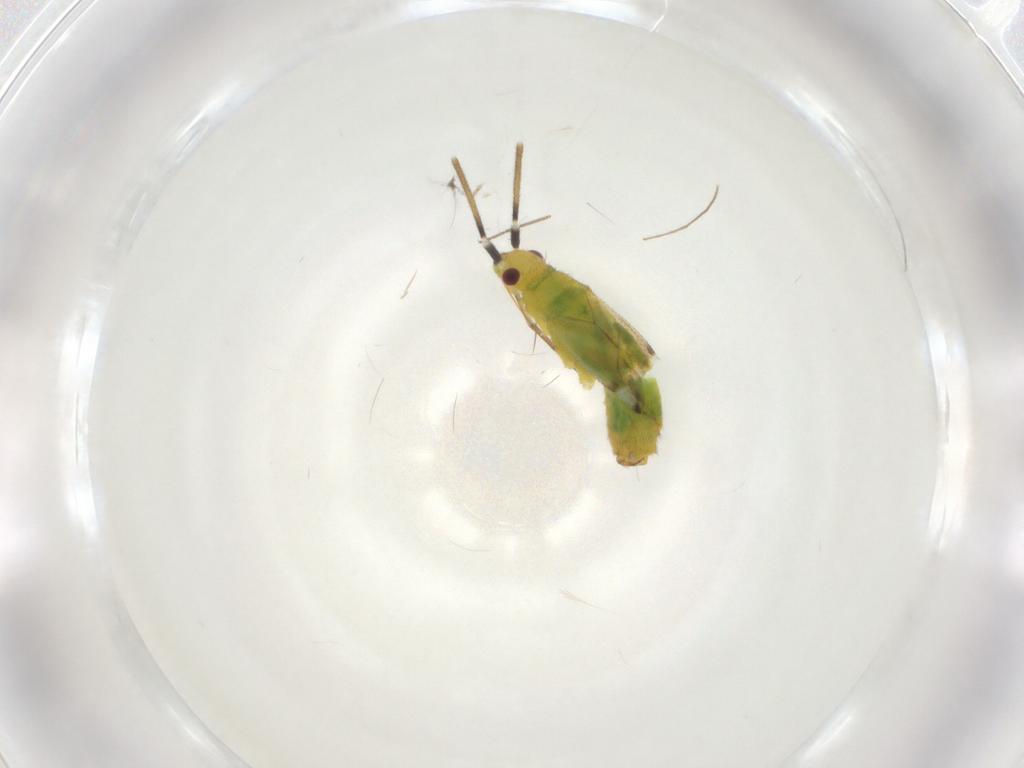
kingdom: Animalia
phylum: Arthropoda
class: Insecta
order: Hemiptera
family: Miridae
